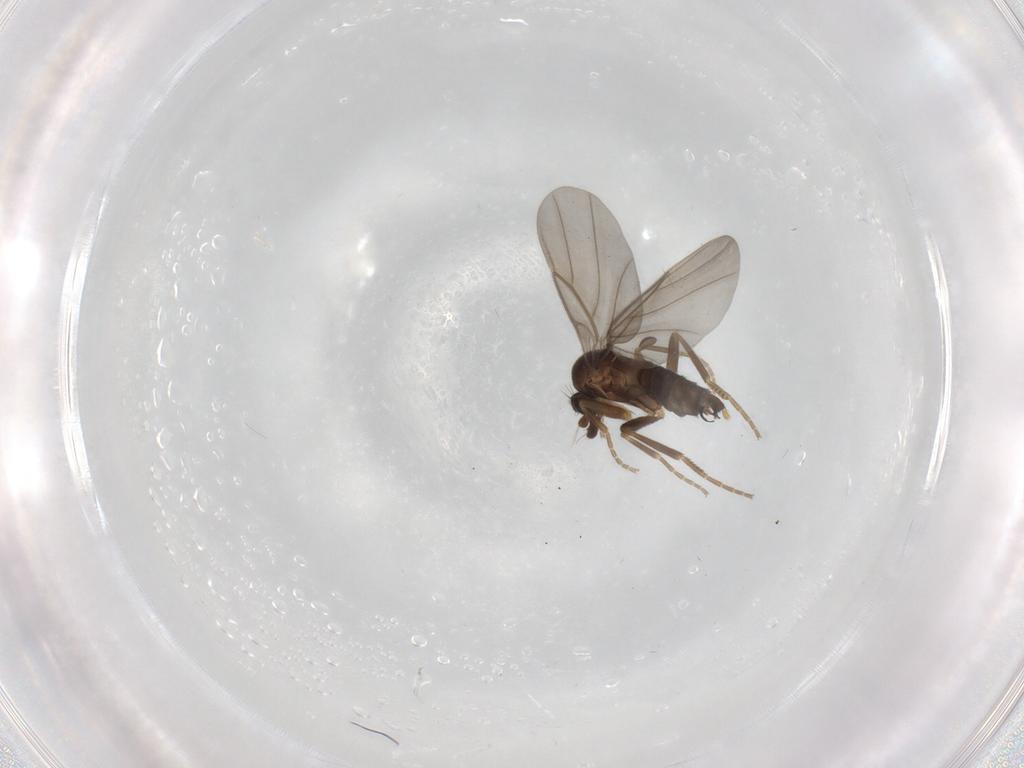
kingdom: Animalia
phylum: Arthropoda
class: Insecta
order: Diptera
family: Phoridae
